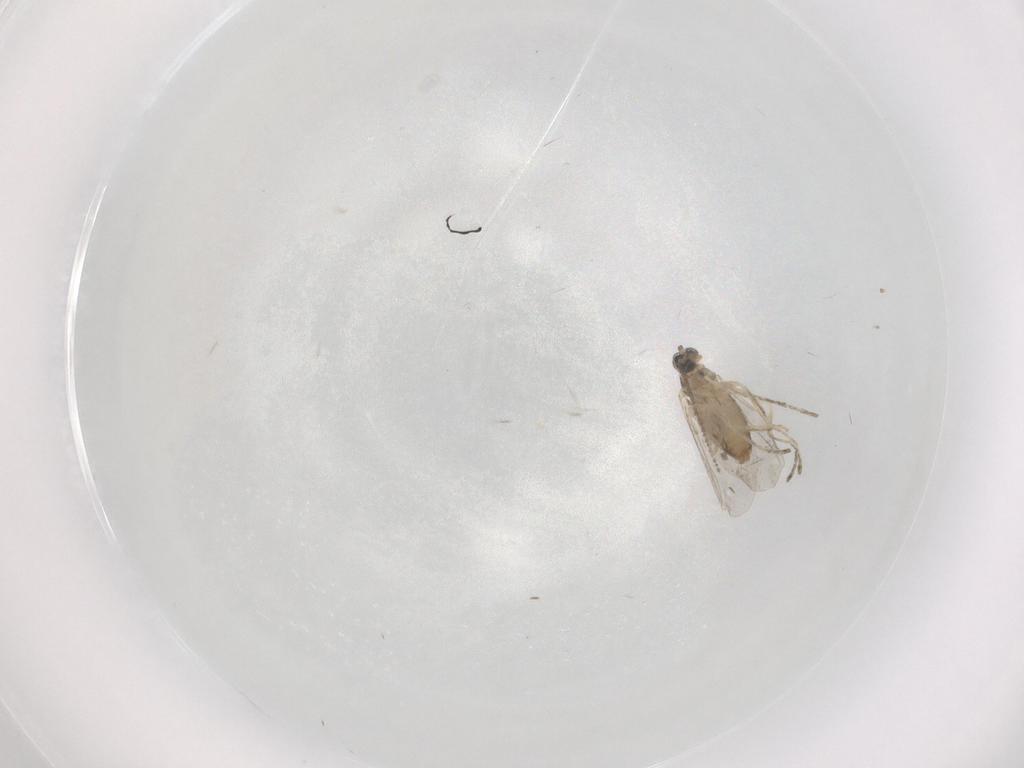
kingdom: Animalia
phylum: Arthropoda
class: Insecta
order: Diptera
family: Cecidomyiidae
